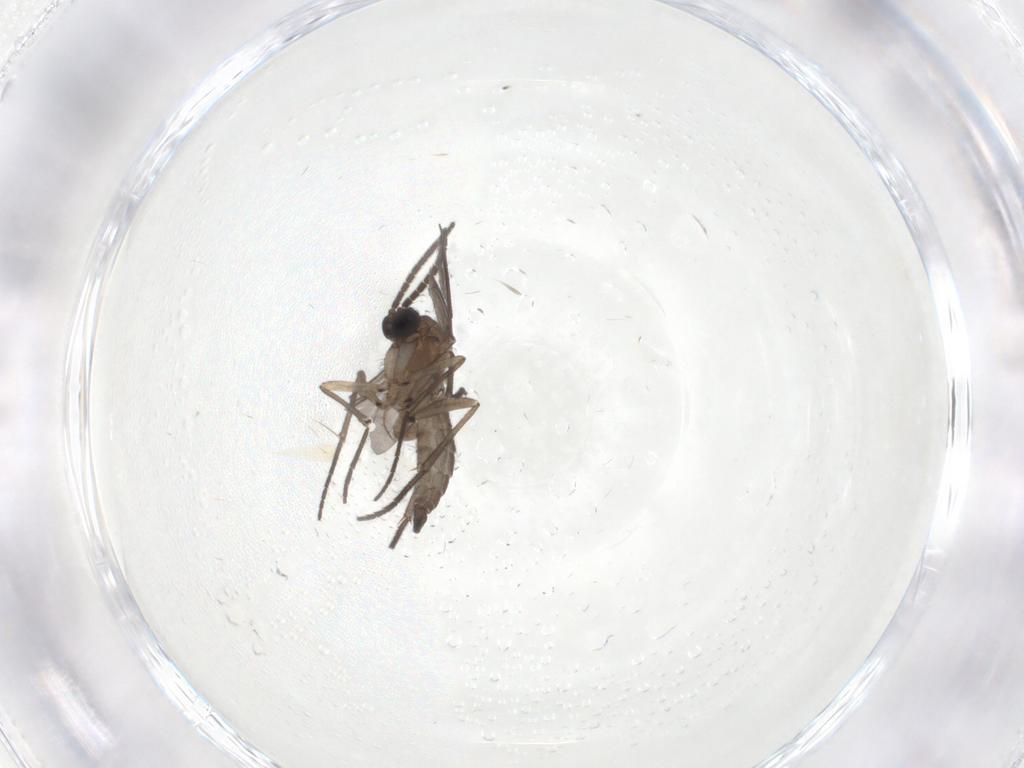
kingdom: Animalia
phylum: Arthropoda
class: Insecta
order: Diptera
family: Sciaridae
